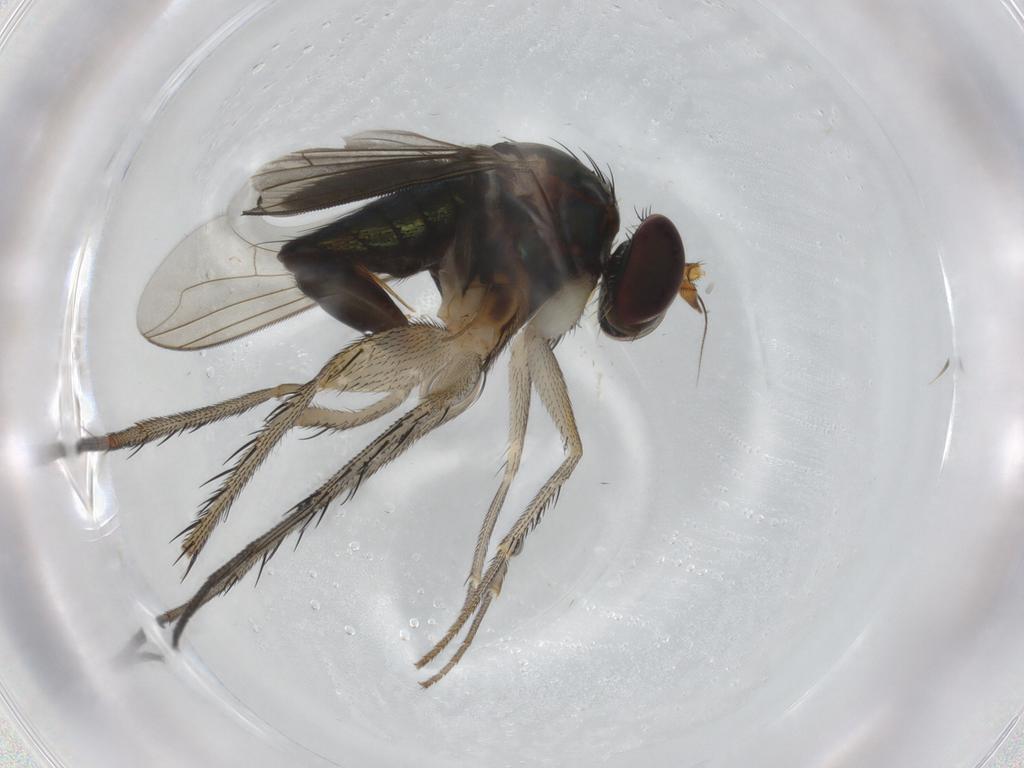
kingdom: Animalia
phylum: Arthropoda
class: Insecta
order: Diptera
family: Dolichopodidae
